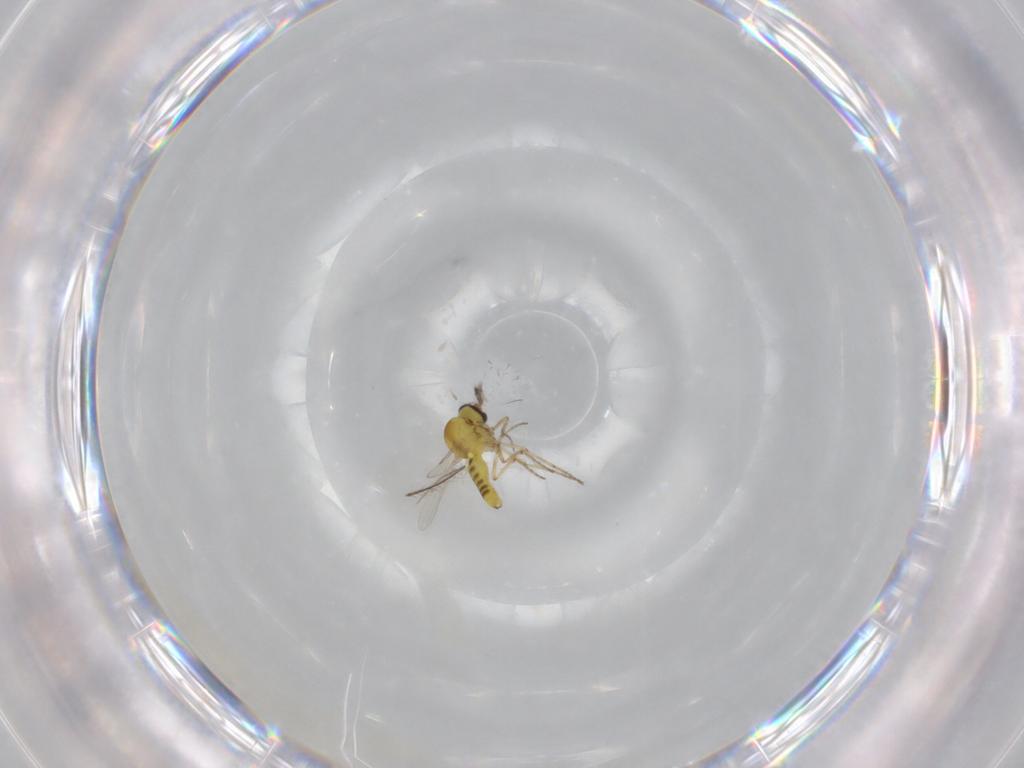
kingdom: Animalia
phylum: Arthropoda
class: Insecta
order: Diptera
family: Ceratopogonidae
